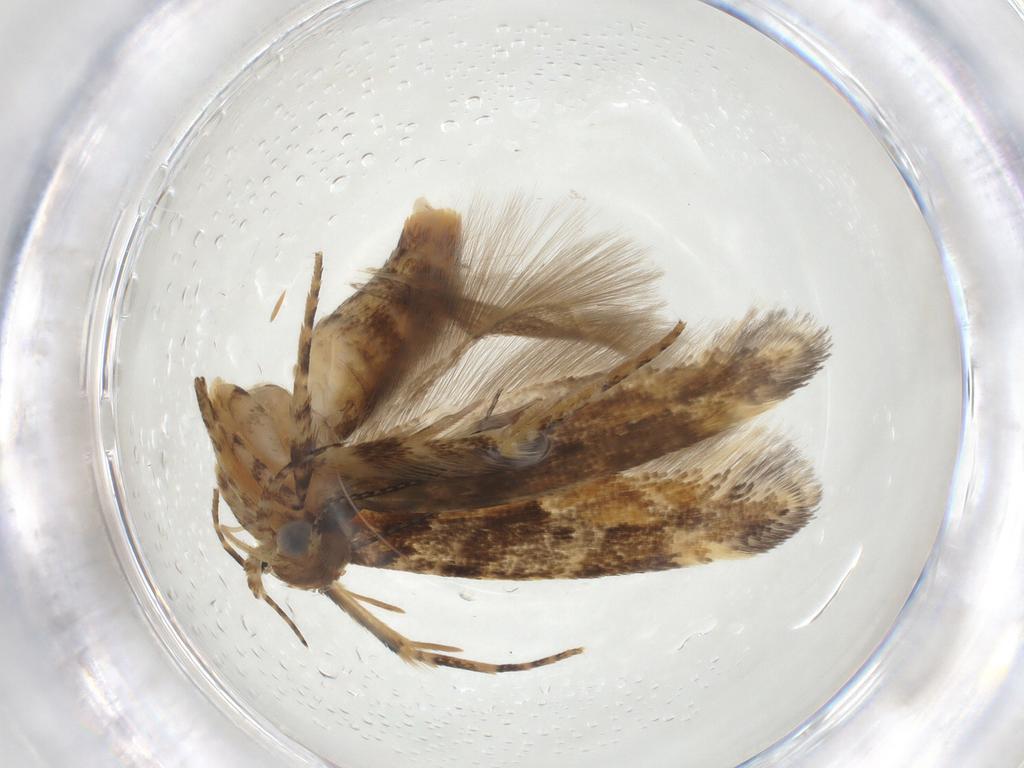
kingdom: Animalia
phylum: Arthropoda
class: Insecta
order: Lepidoptera
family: Gelechiidae
